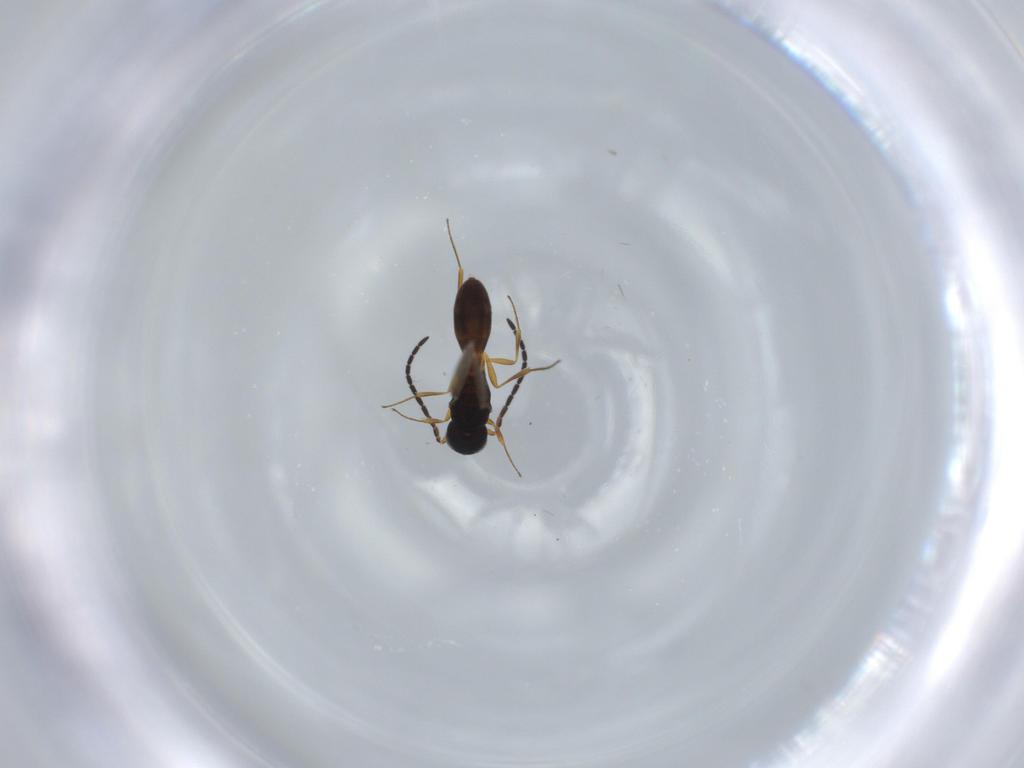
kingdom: Animalia
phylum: Arthropoda
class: Insecta
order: Hymenoptera
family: Scelionidae
